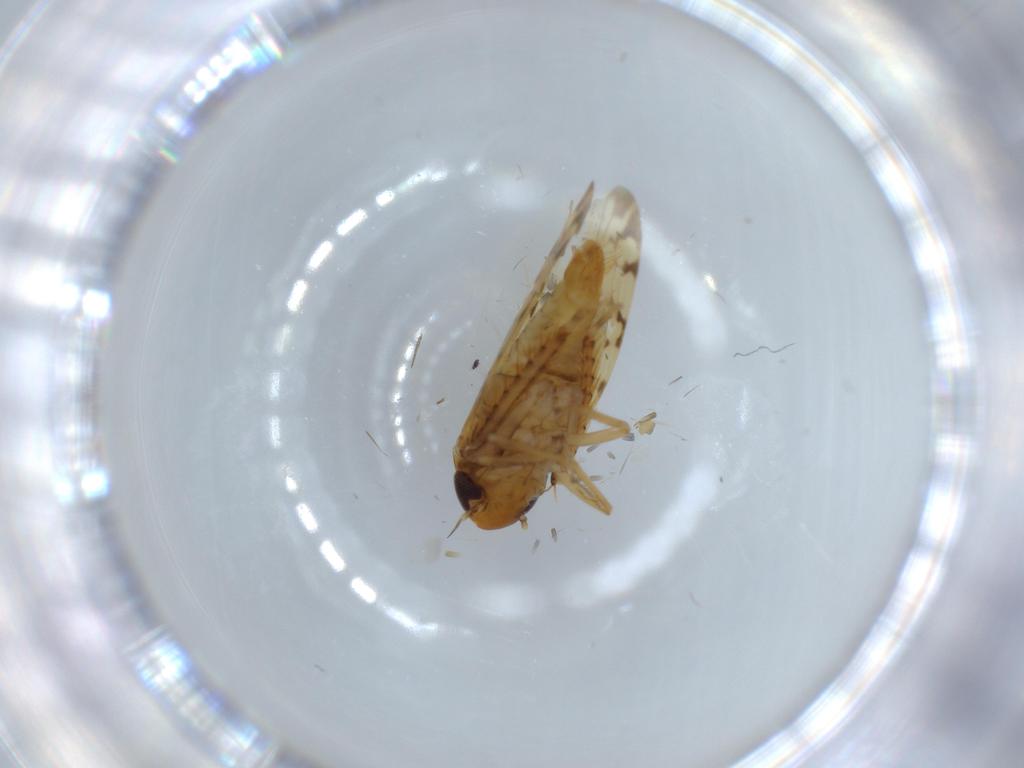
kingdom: Animalia
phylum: Arthropoda
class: Insecta
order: Hemiptera
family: Cicadellidae
